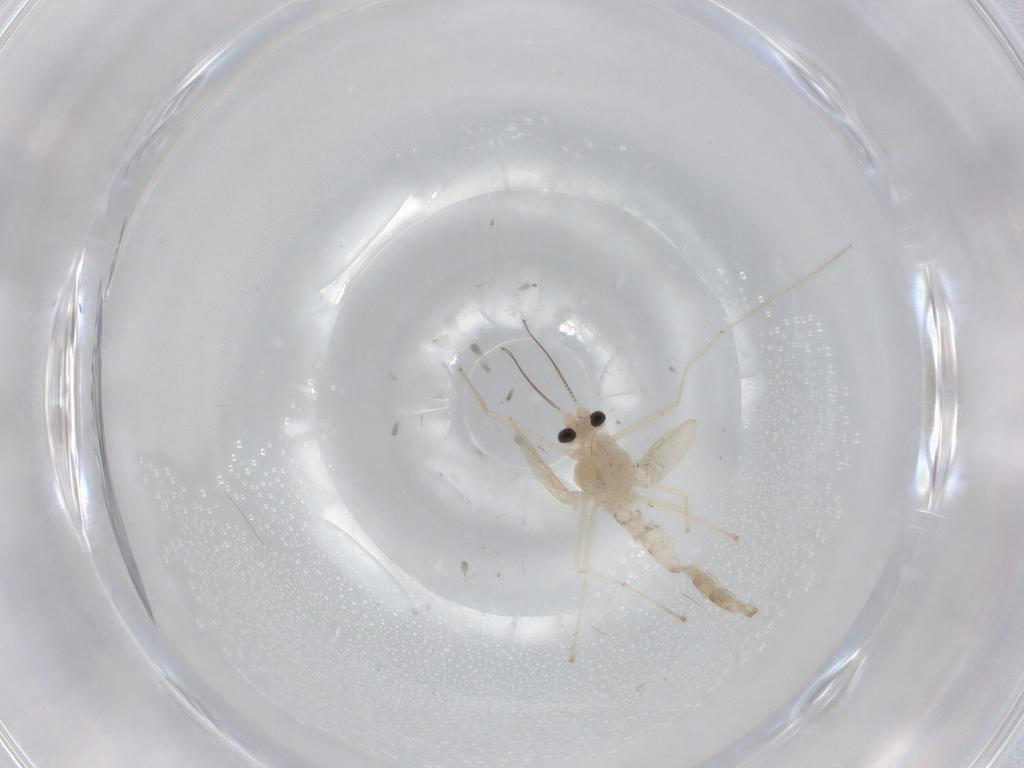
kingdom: Animalia
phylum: Arthropoda
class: Insecta
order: Diptera
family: Chironomidae
